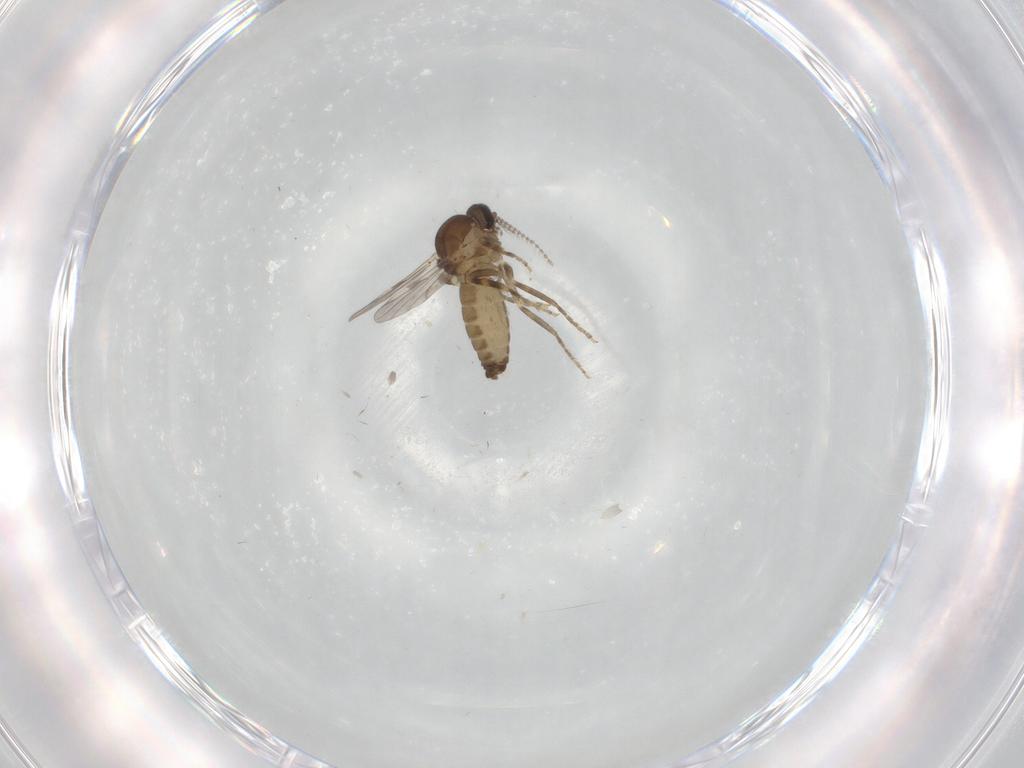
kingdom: Animalia
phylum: Arthropoda
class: Insecta
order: Diptera
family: Ceratopogonidae
